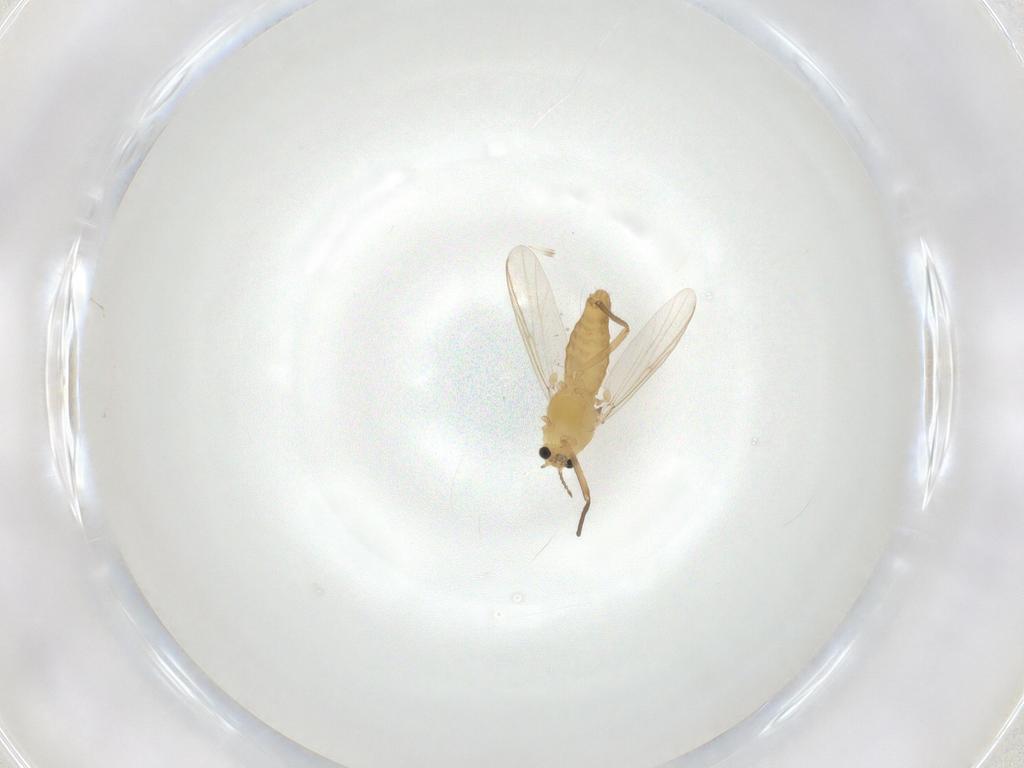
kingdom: Animalia
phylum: Arthropoda
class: Insecta
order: Diptera
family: Chironomidae
